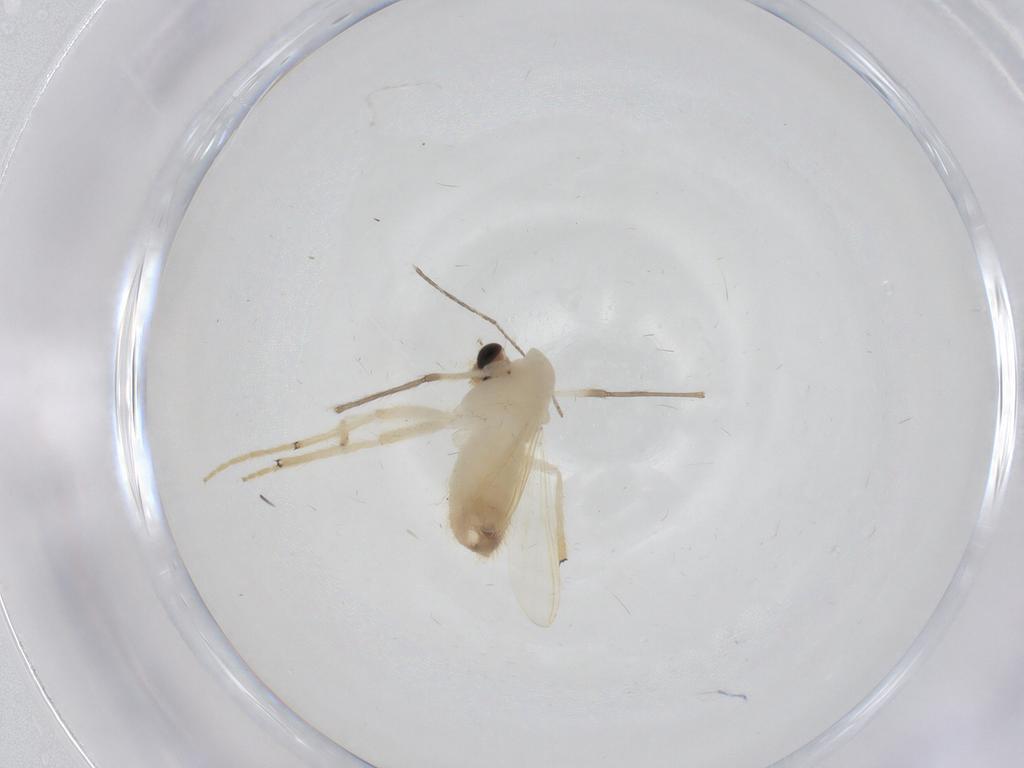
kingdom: Animalia
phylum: Arthropoda
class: Insecta
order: Diptera
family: Chironomidae
